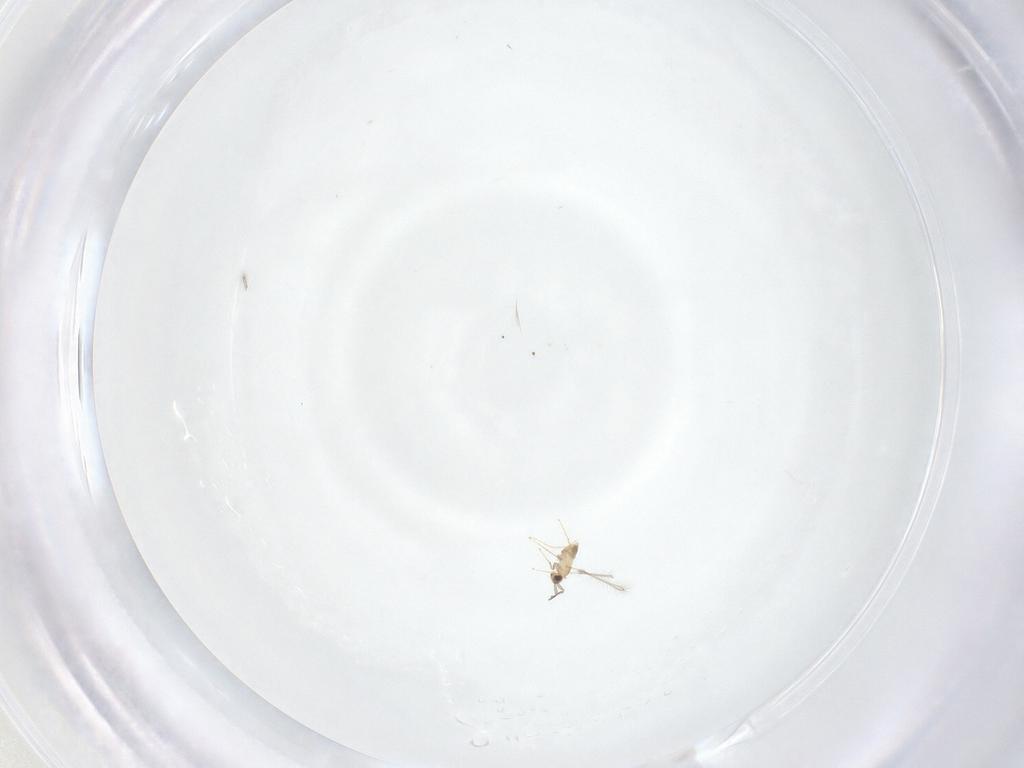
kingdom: Animalia
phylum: Arthropoda
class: Insecta
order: Hymenoptera
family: Mymaridae
